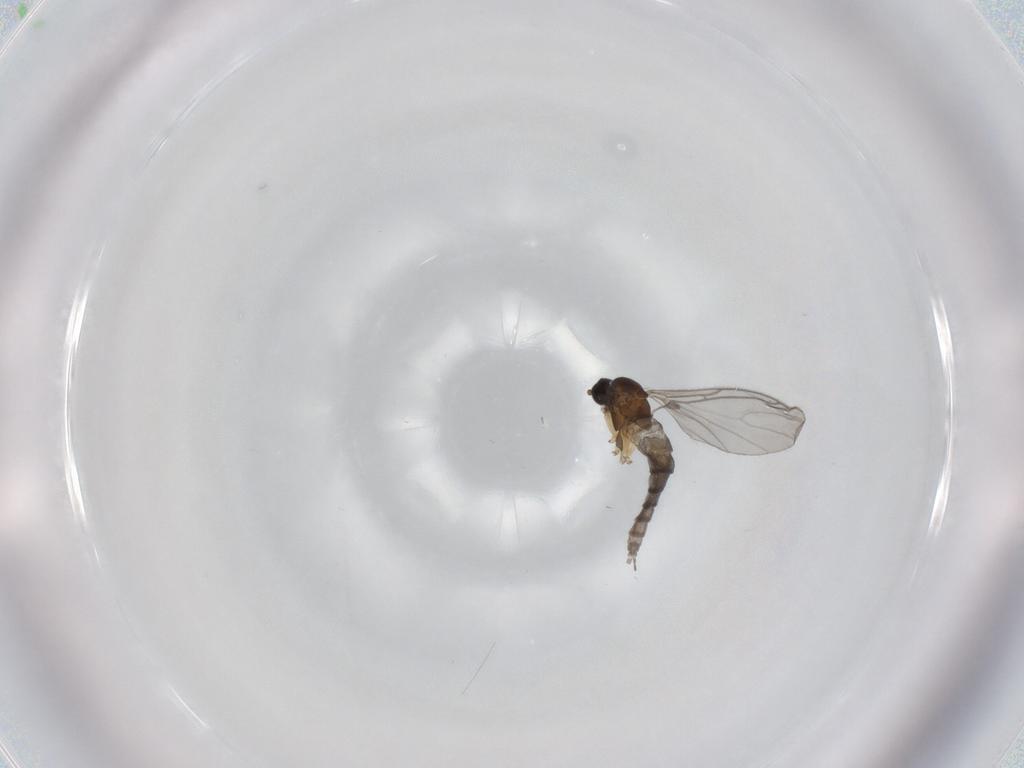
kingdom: Animalia
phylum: Arthropoda
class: Insecta
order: Diptera
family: Sciaridae
